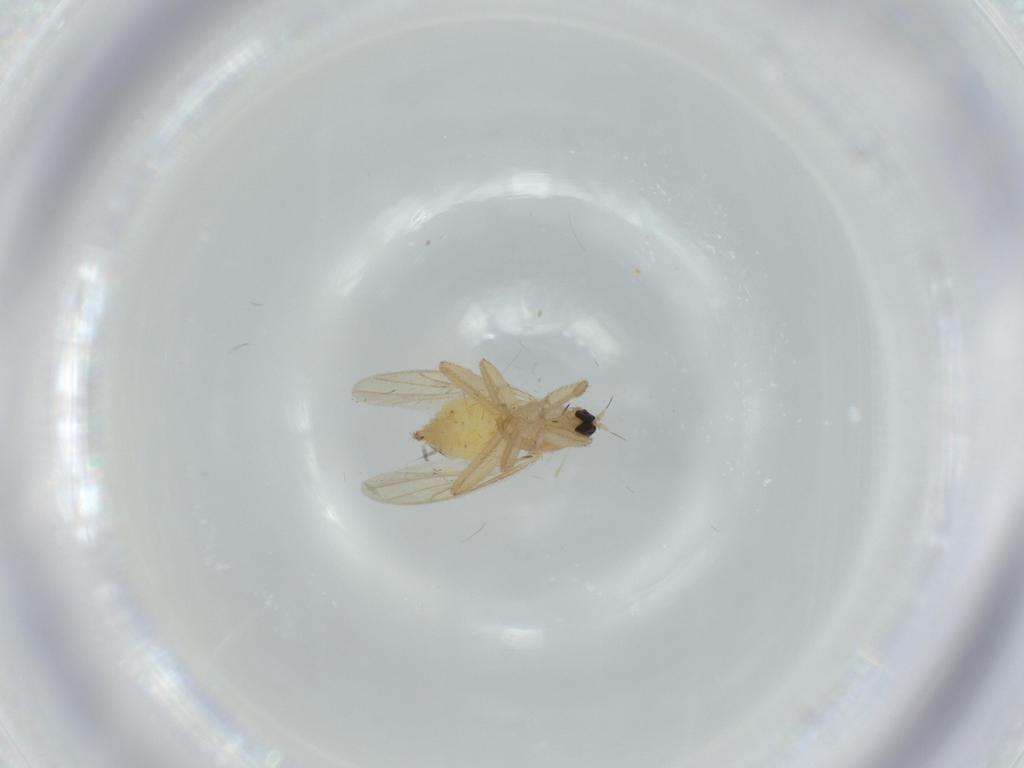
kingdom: Animalia
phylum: Arthropoda
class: Insecta
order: Diptera
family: Hybotidae
